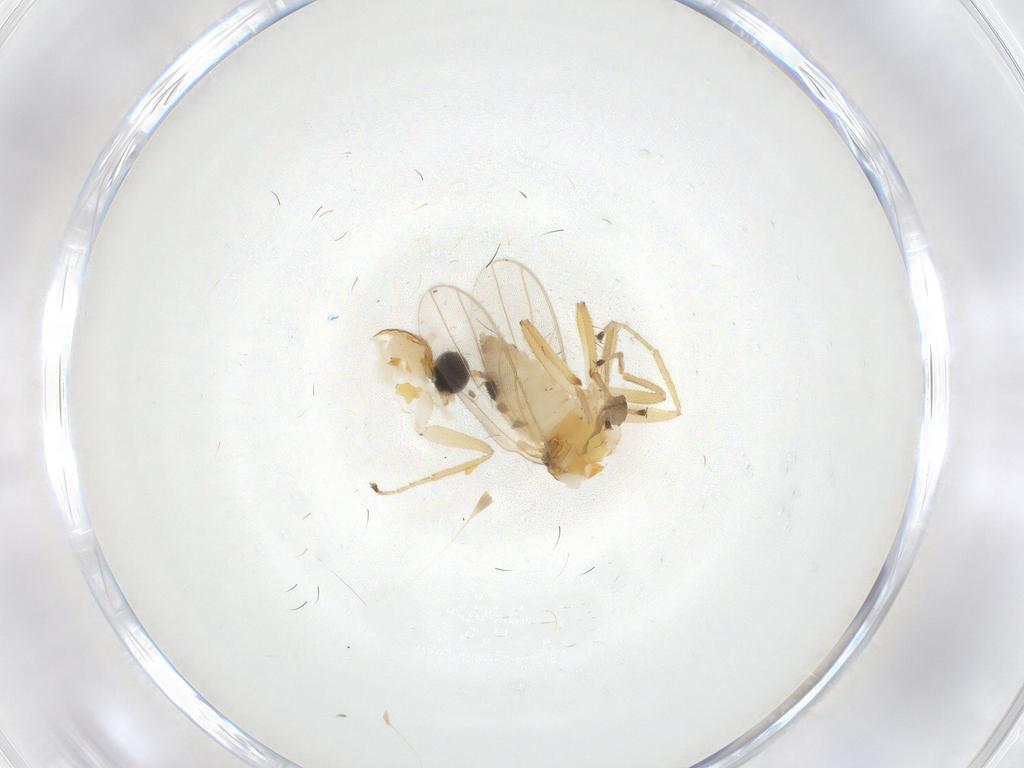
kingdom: Animalia
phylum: Arthropoda
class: Insecta
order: Diptera
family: Hybotidae
